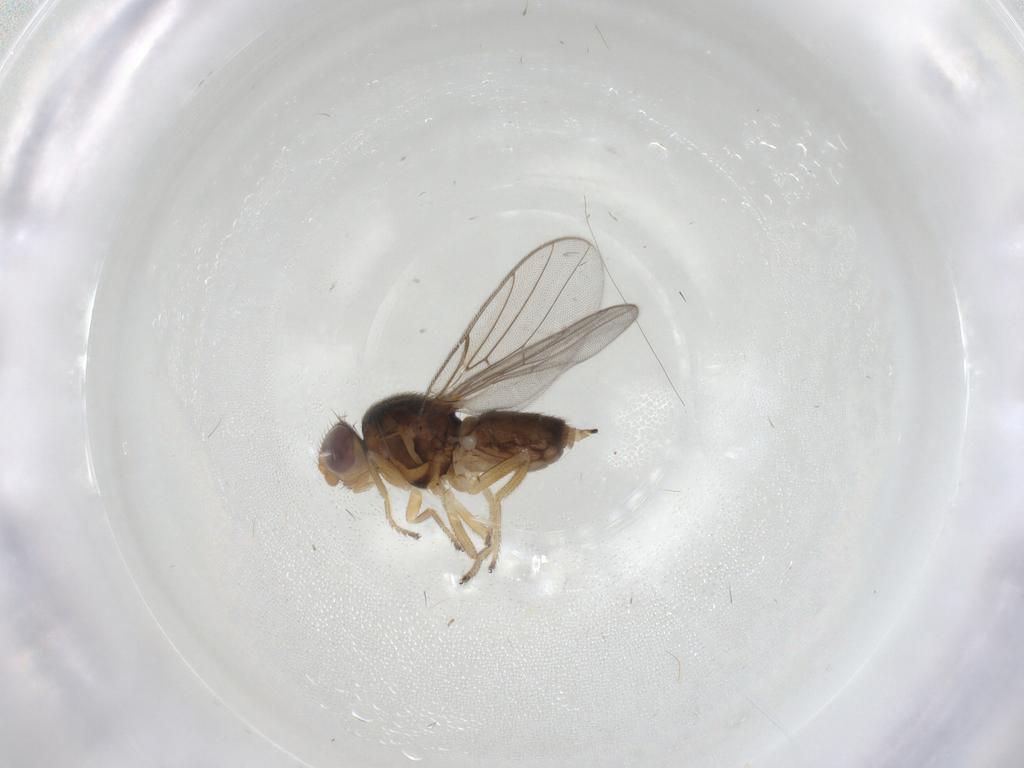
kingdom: Animalia
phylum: Arthropoda
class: Insecta
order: Diptera
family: Chloropidae
